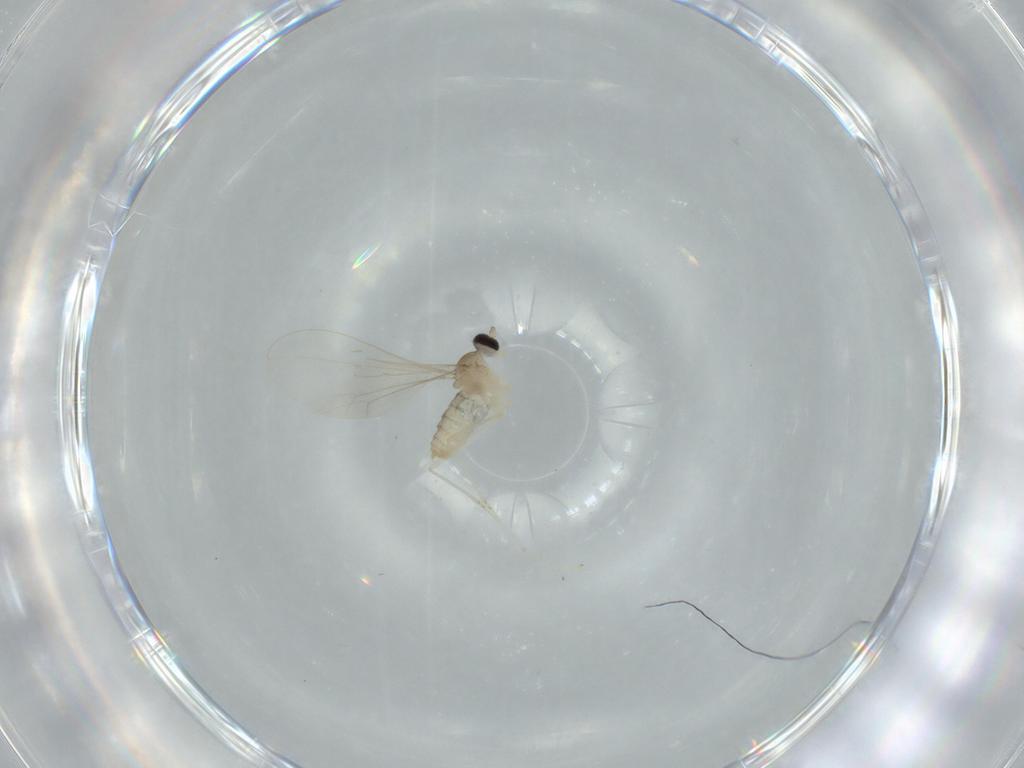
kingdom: Animalia
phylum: Arthropoda
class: Insecta
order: Diptera
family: Cecidomyiidae
